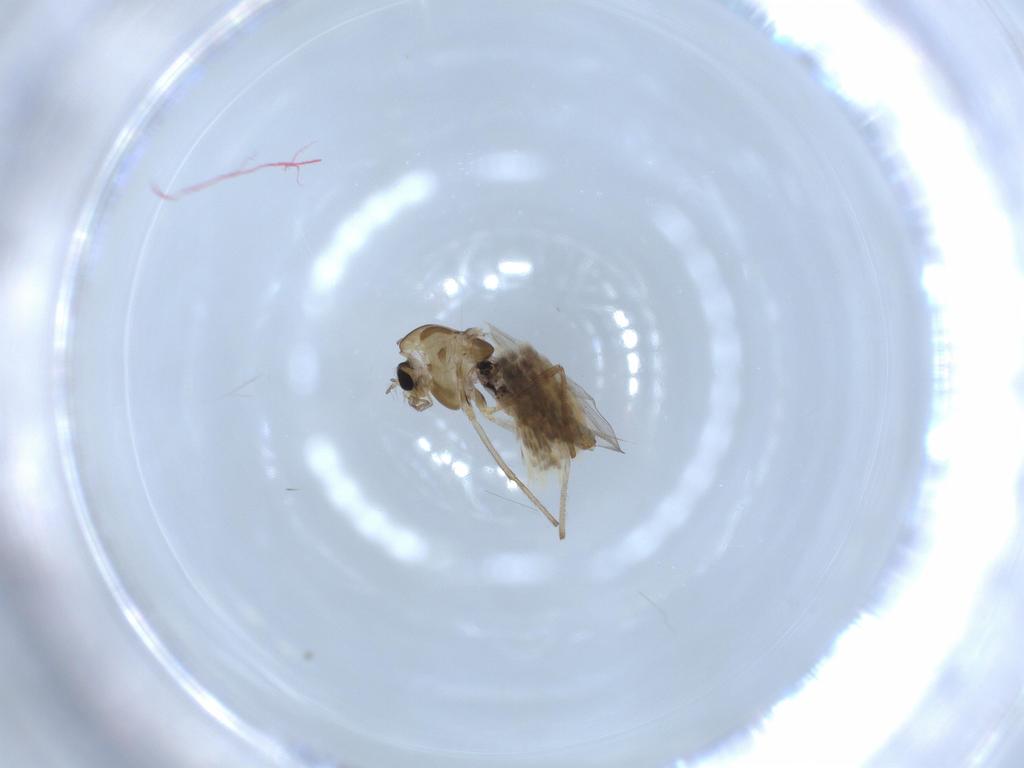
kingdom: Animalia
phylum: Arthropoda
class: Insecta
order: Diptera
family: Chironomidae
